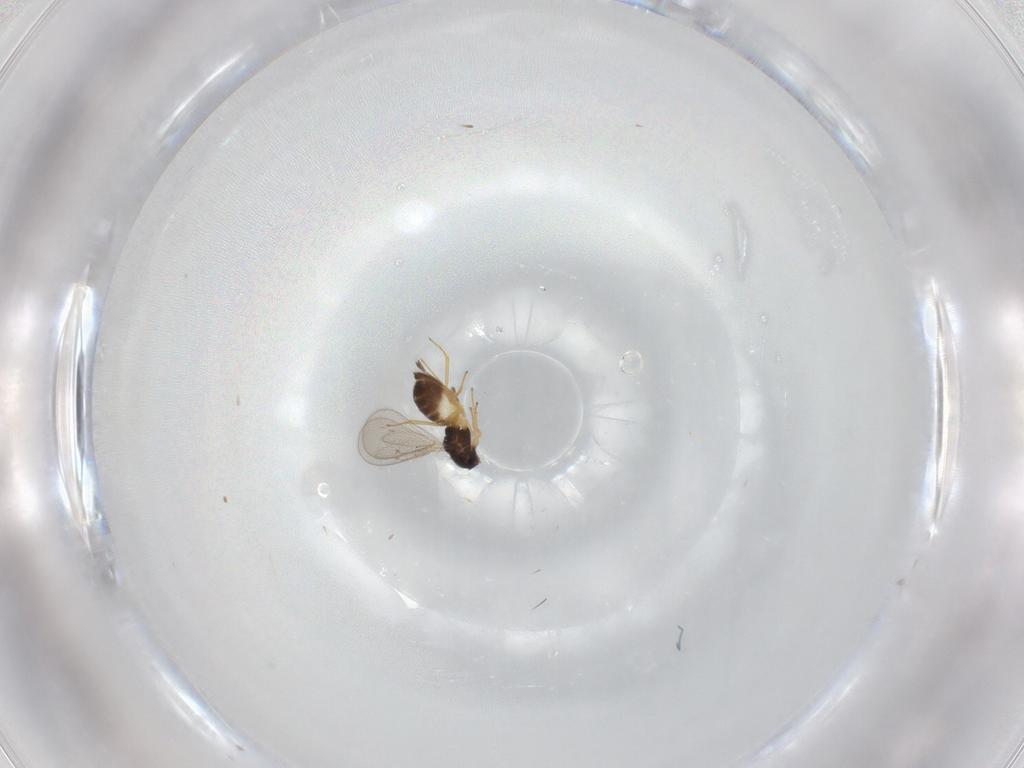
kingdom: Animalia
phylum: Arthropoda
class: Insecta
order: Hymenoptera
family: Eulophidae
